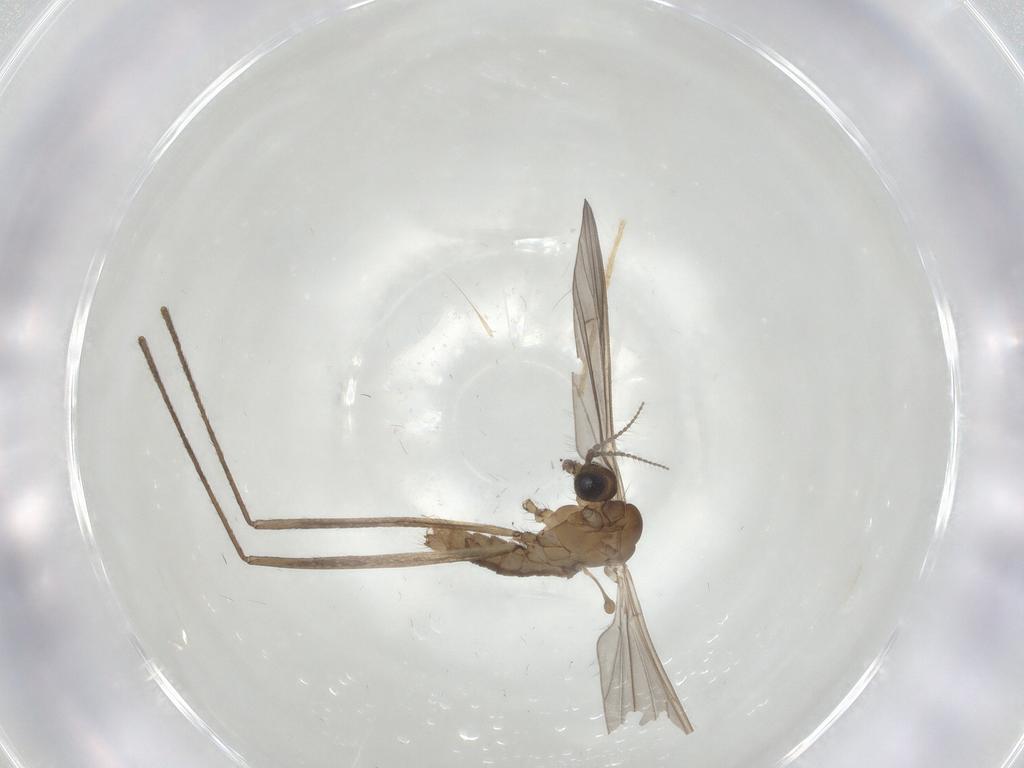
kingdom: Animalia
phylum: Arthropoda
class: Insecta
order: Diptera
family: Limoniidae
